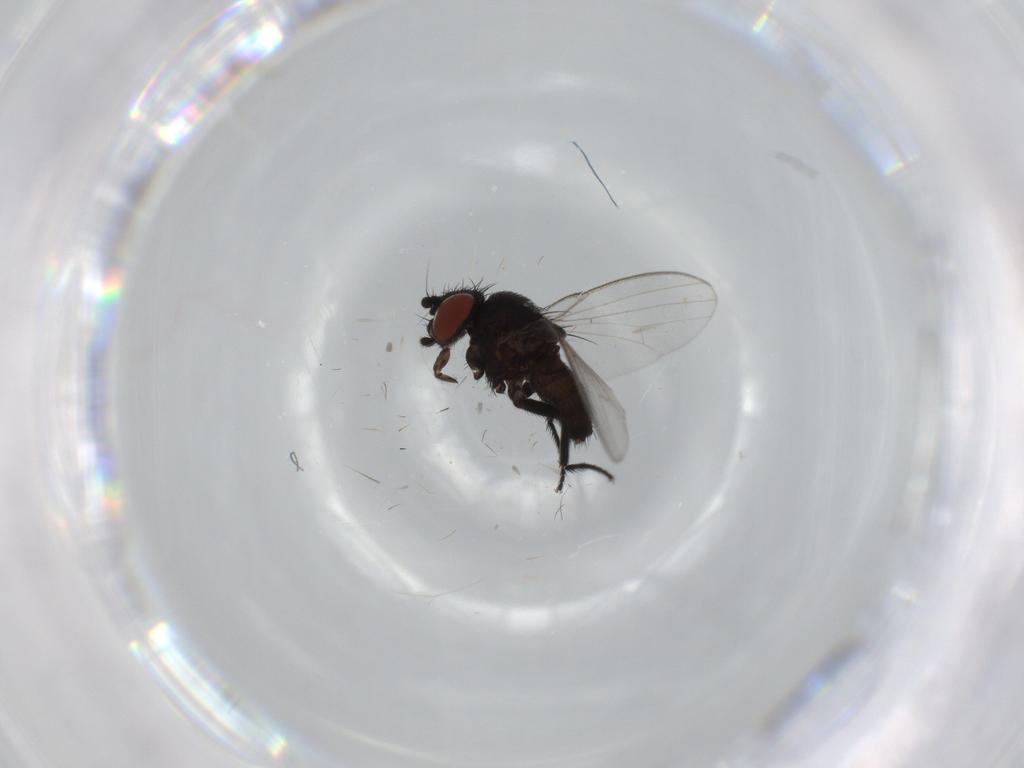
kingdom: Animalia
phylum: Arthropoda
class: Insecta
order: Diptera
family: Milichiidae
